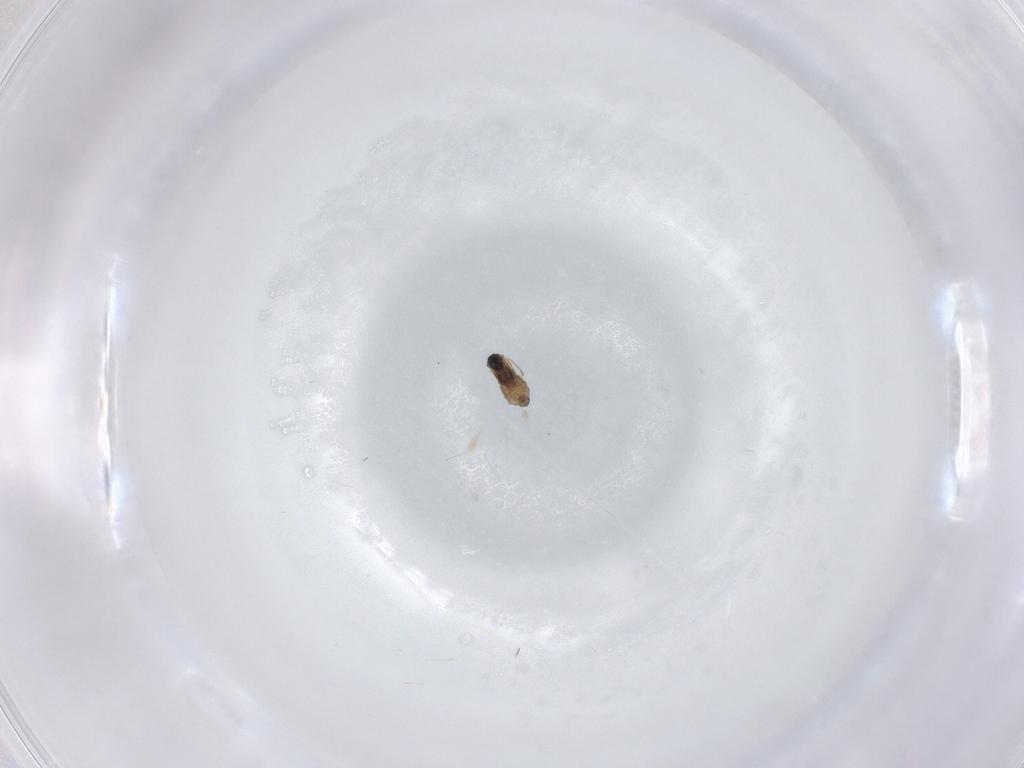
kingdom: Animalia
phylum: Arthropoda
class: Insecta
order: Diptera
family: Cecidomyiidae
